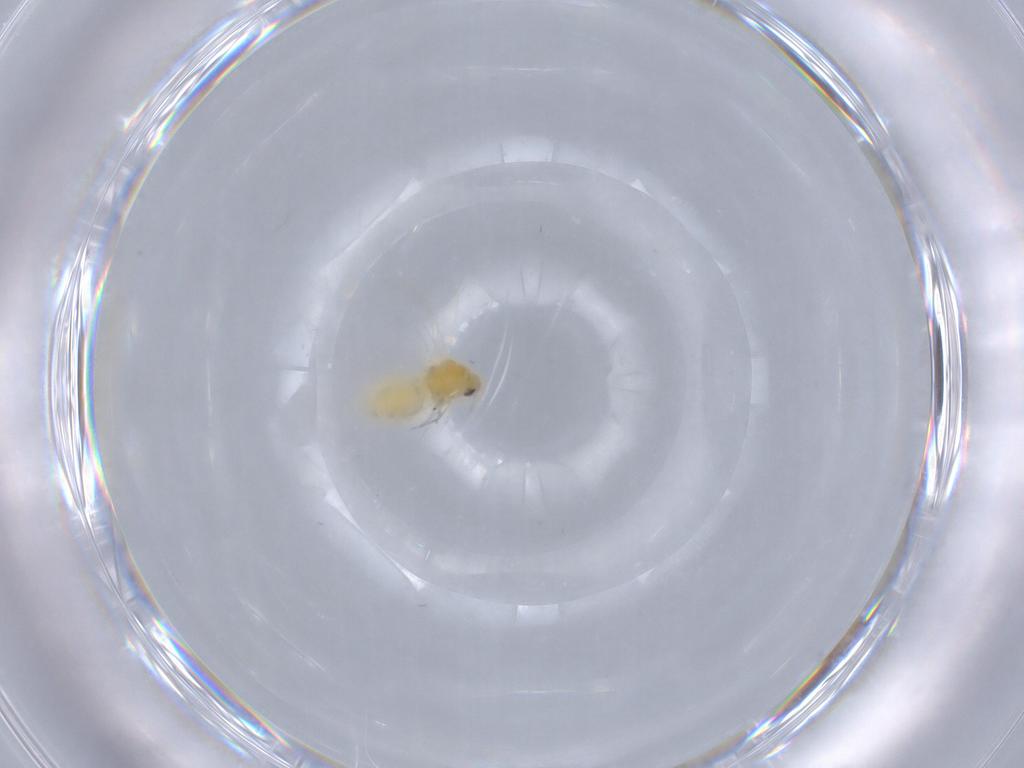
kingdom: Animalia
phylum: Arthropoda
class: Insecta
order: Hemiptera
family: Aleyrodidae
